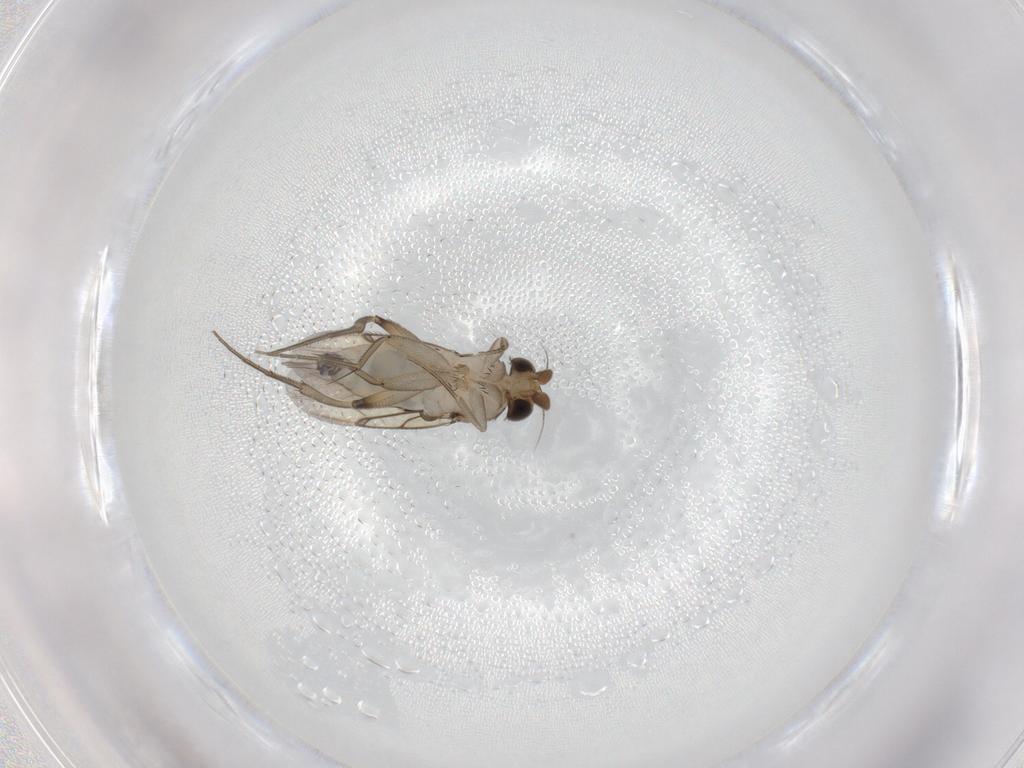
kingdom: Animalia
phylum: Arthropoda
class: Insecta
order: Diptera
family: Phoridae
